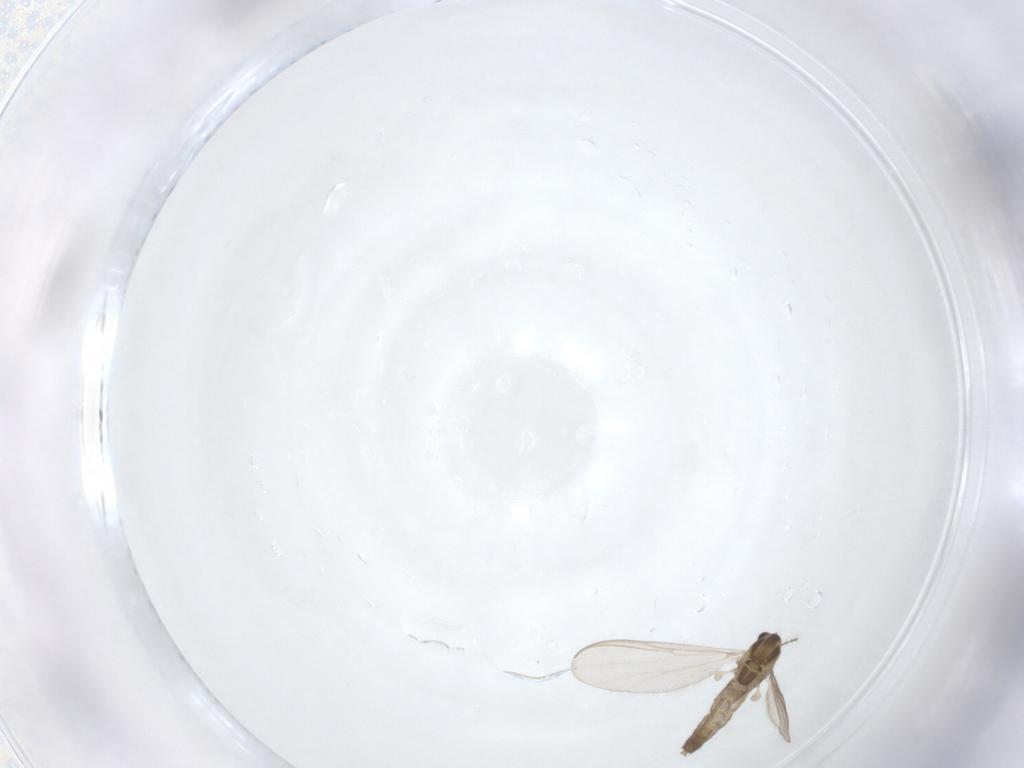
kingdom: Animalia
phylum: Arthropoda
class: Insecta
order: Diptera
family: Chironomidae
